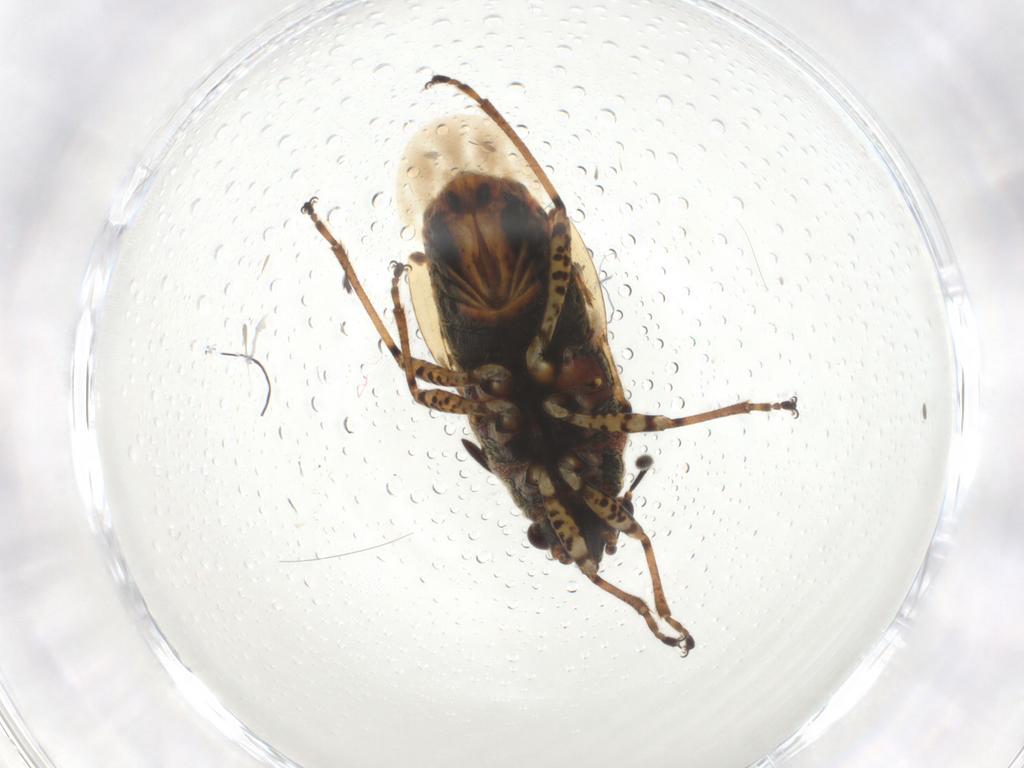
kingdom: Animalia
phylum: Arthropoda
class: Insecta
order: Hemiptera
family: Lygaeidae
